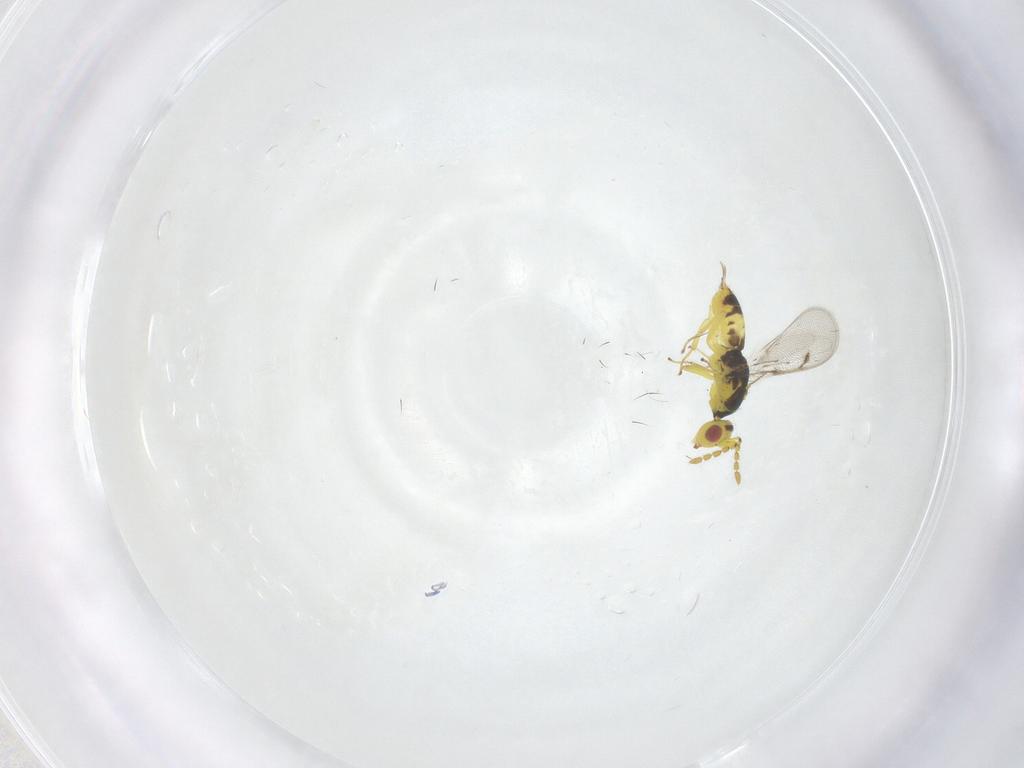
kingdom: Animalia
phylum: Arthropoda
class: Insecta
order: Hymenoptera
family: Eulophidae
